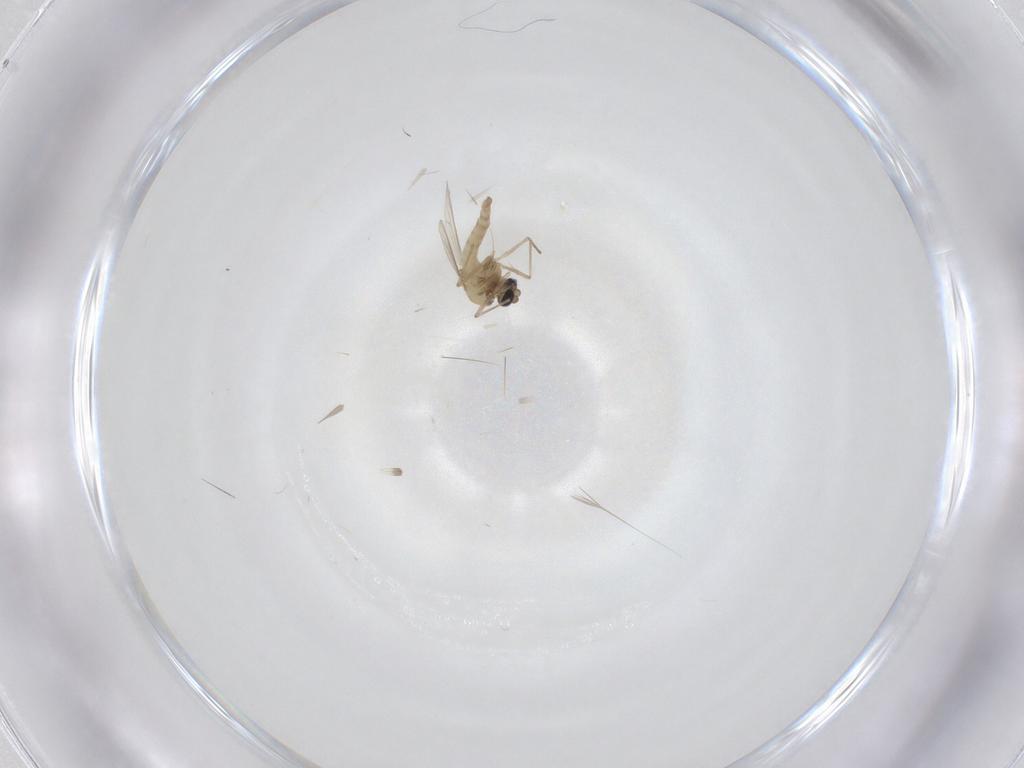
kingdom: Animalia
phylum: Arthropoda
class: Insecta
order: Diptera
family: Chironomidae
